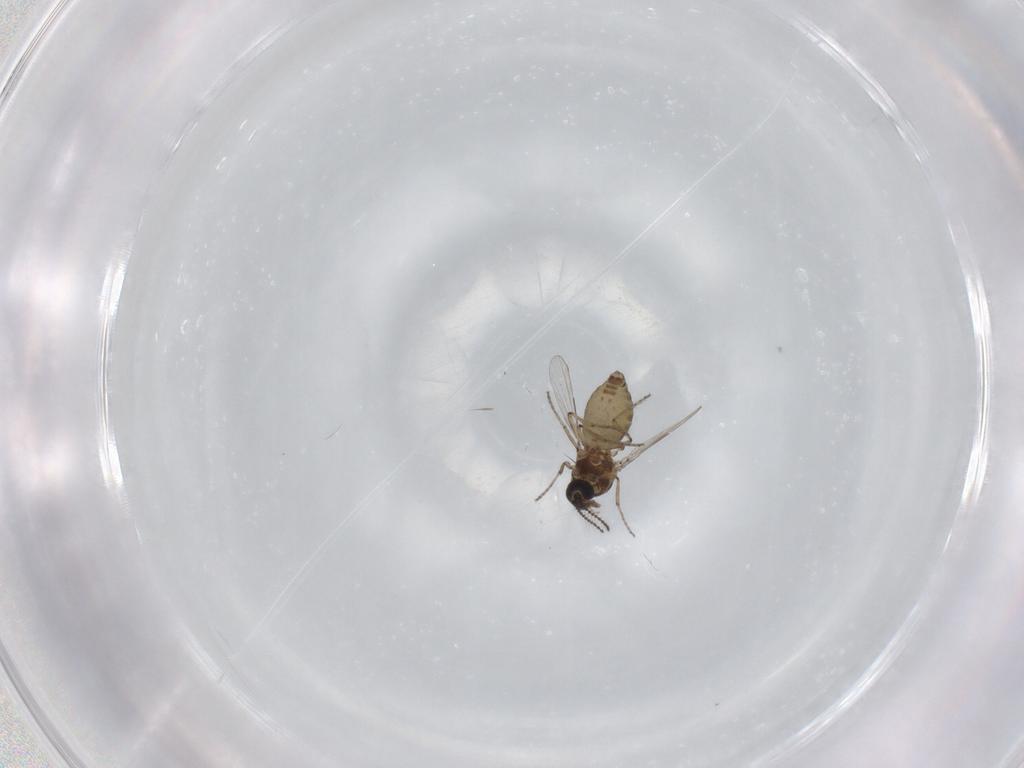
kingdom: Animalia
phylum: Arthropoda
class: Insecta
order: Diptera
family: Ceratopogonidae
